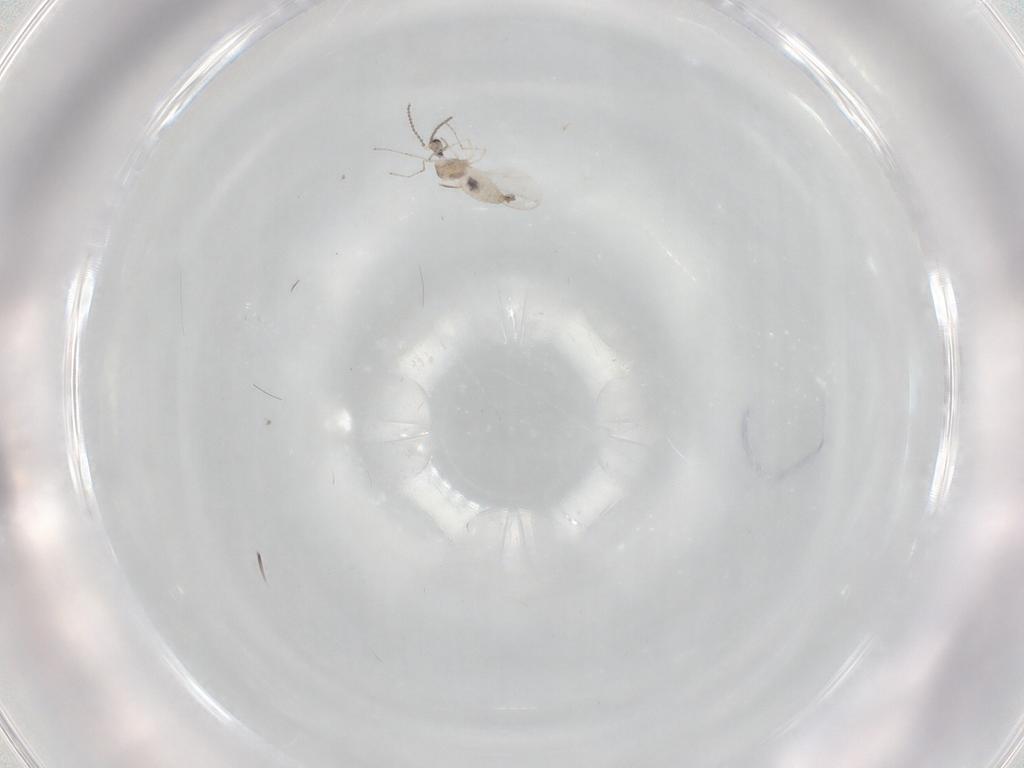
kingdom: Animalia
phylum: Arthropoda
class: Insecta
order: Diptera
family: Cecidomyiidae
